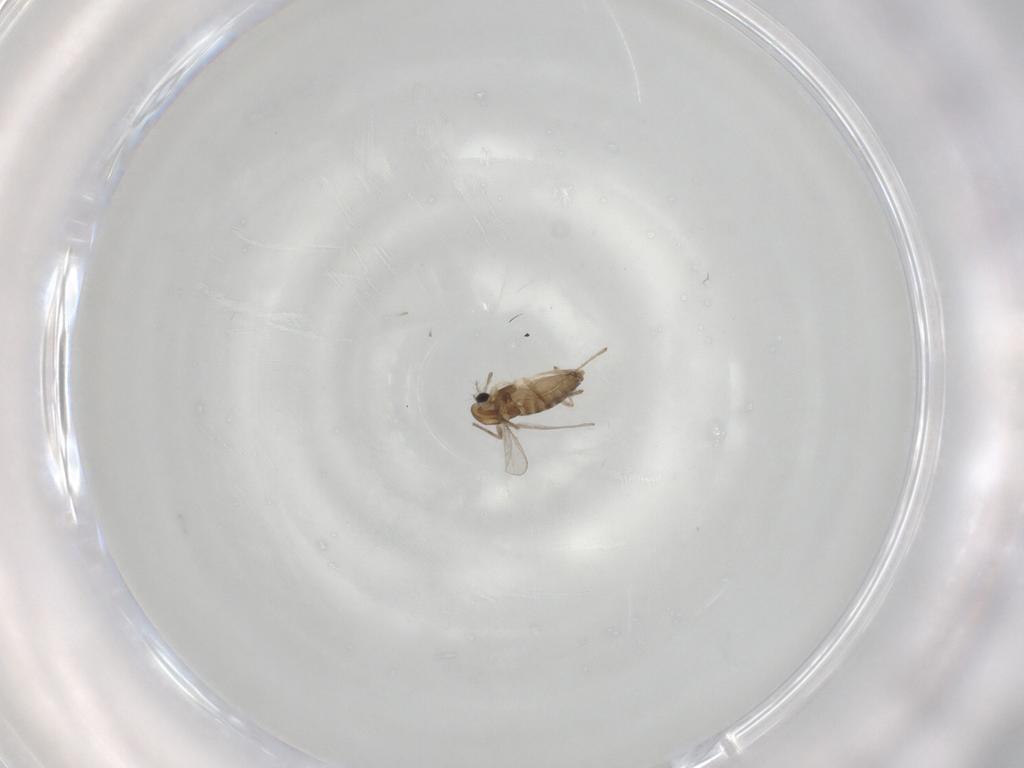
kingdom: Animalia
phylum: Arthropoda
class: Insecta
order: Diptera
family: Chironomidae
